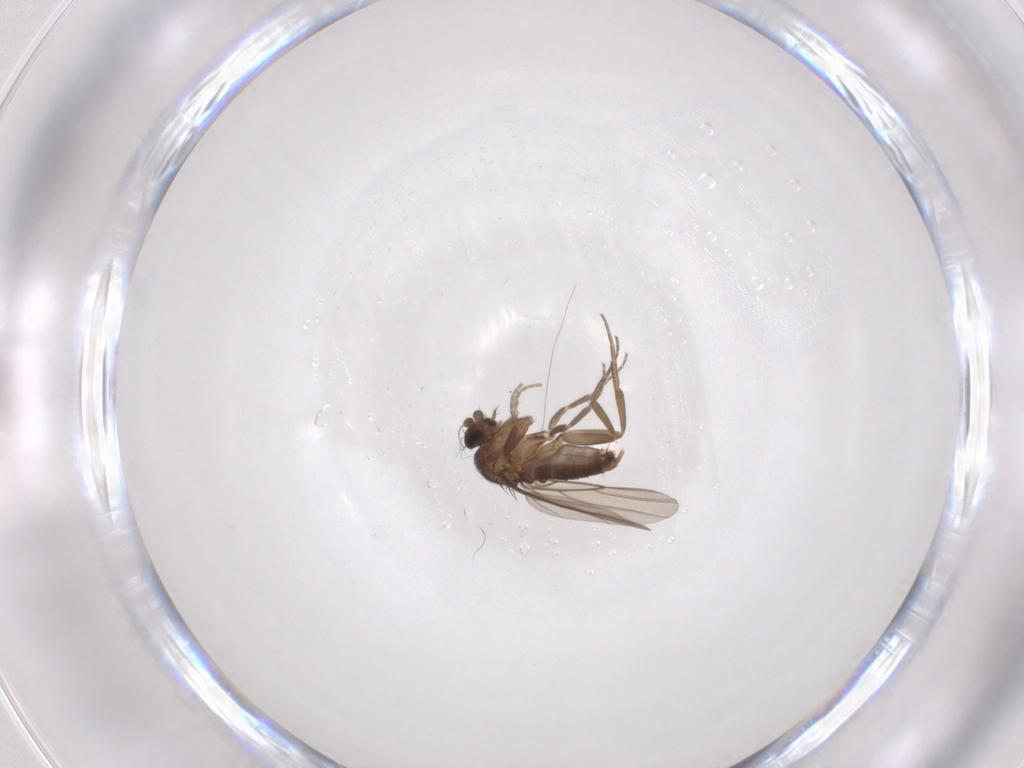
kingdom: Animalia
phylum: Arthropoda
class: Insecta
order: Diptera
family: Phoridae
